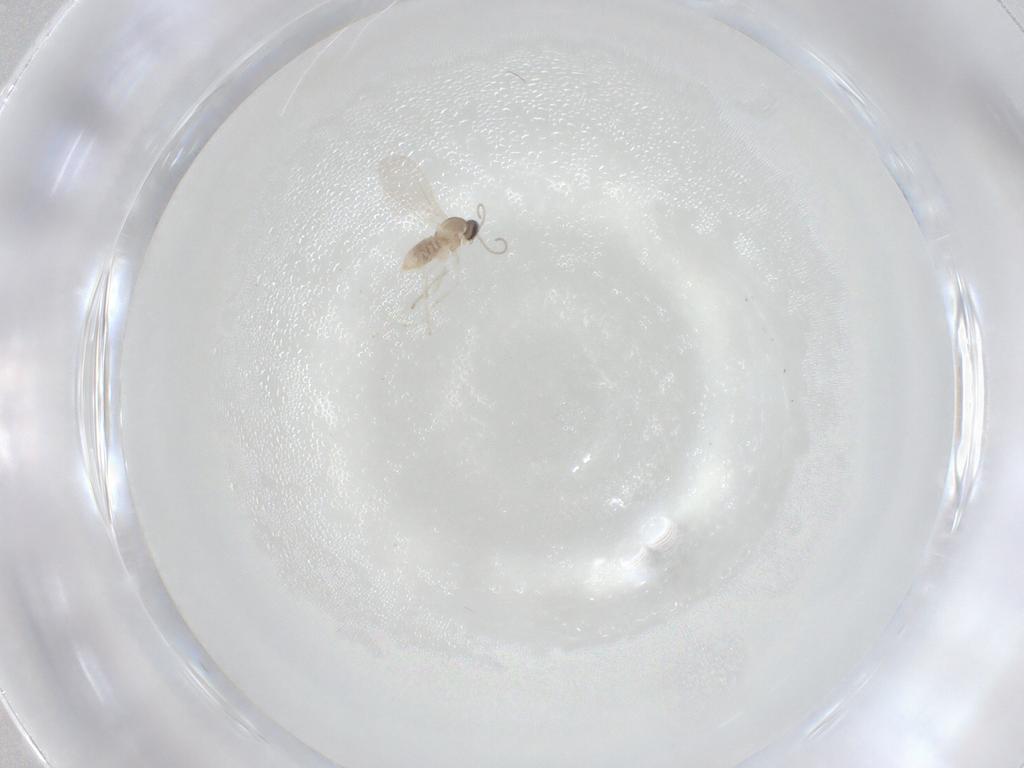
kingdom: Animalia
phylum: Arthropoda
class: Insecta
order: Diptera
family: Cecidomyiidae
